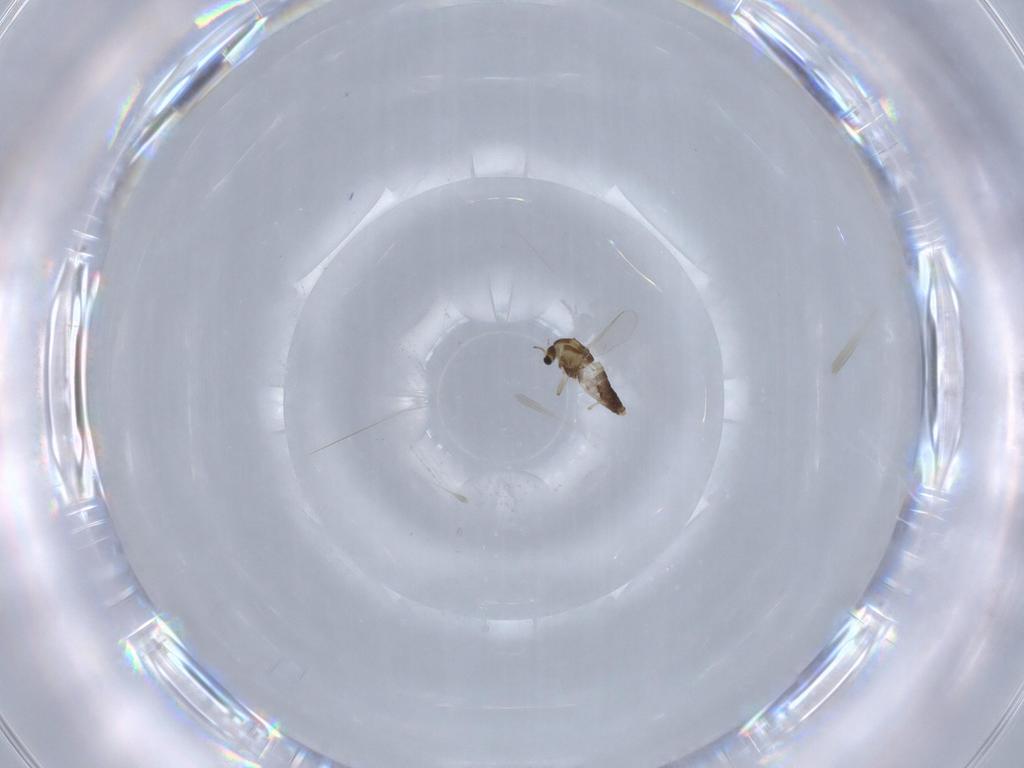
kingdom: Animalia
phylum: Arthropoda
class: Insecta
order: Diptera
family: Chironomidae
